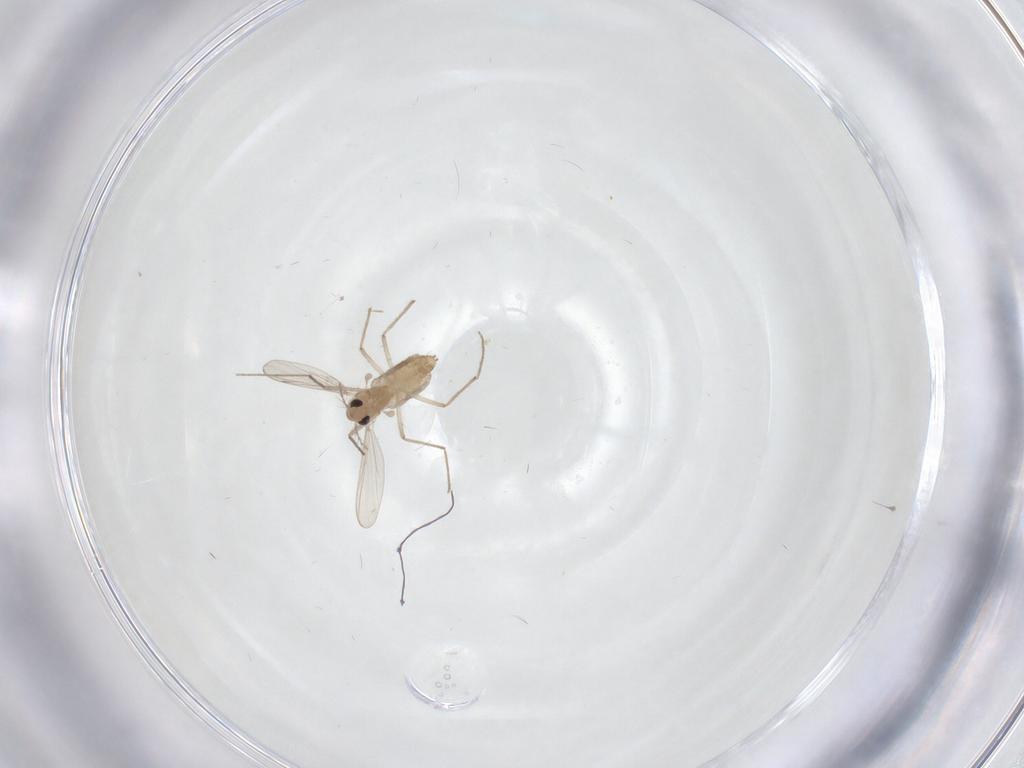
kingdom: Animalia
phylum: Arthropoda
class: Insecta
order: Diptera
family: Chironomidae
